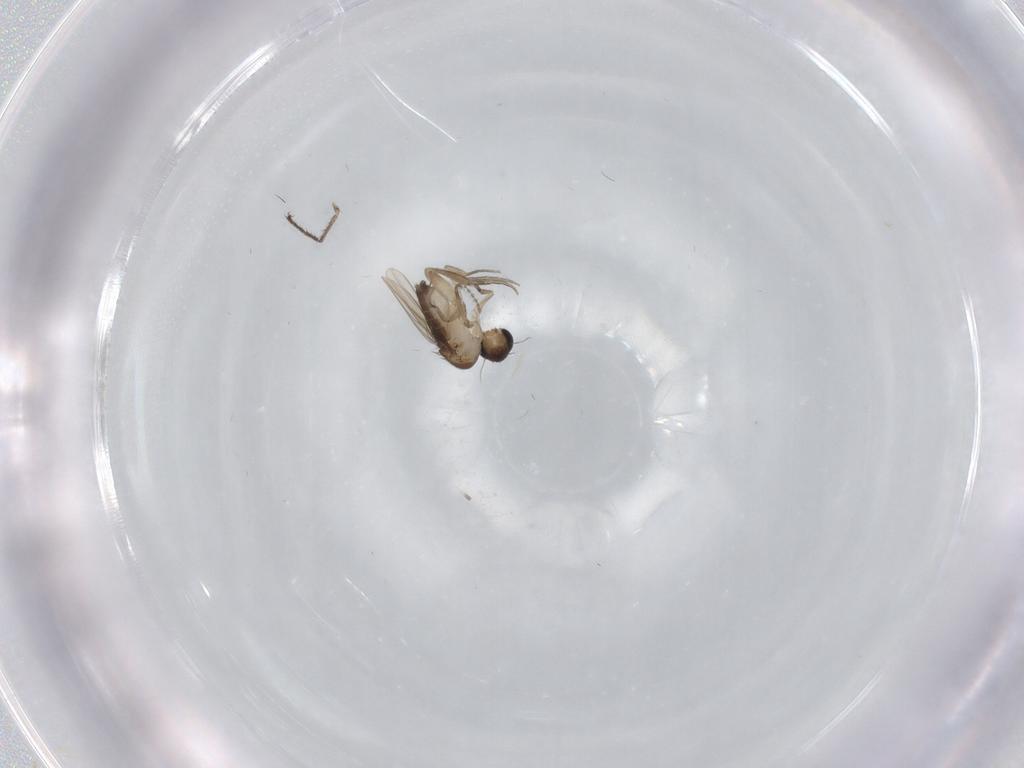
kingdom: Animalia
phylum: Arthropoda
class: Insecta
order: Diptera
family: Phoridae
